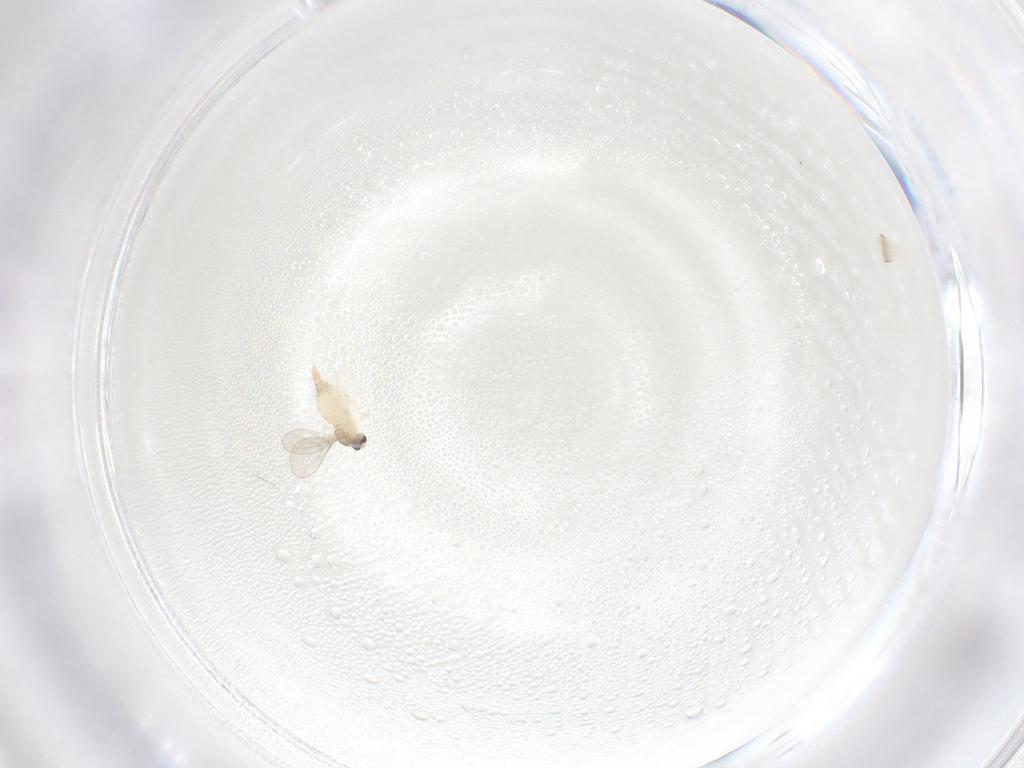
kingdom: Animalia
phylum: Arthropoda
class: Insecta
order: Diptera
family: Cecidomyiidae
